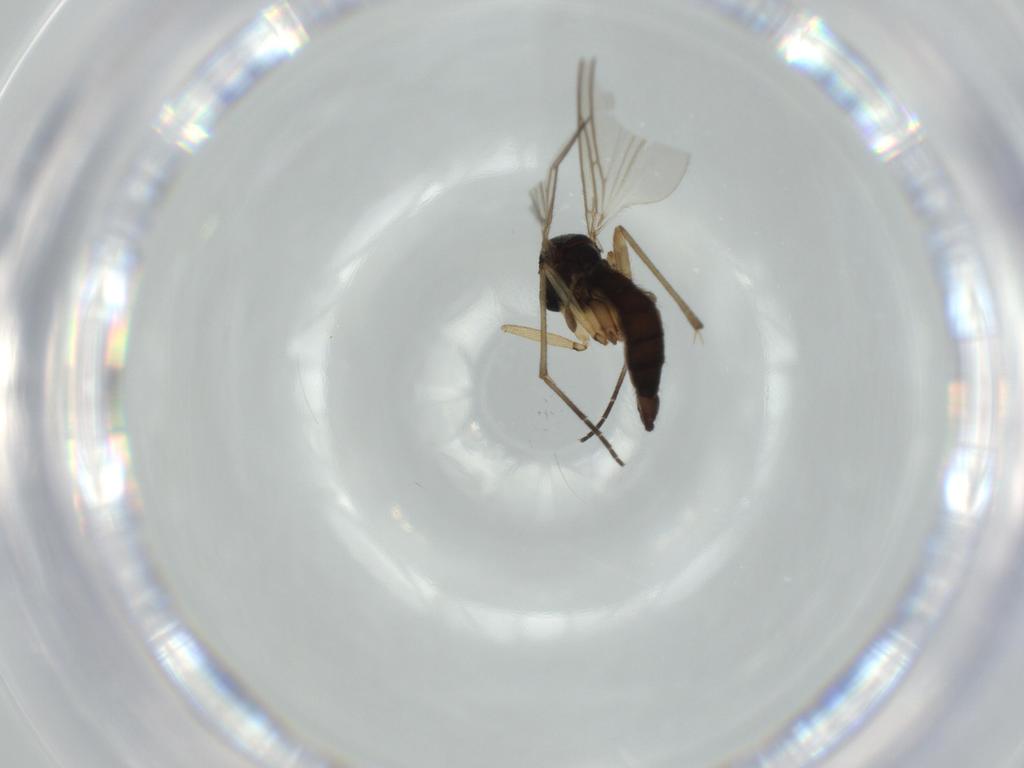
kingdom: Animalia
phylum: Arthropoda
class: Insecta
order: Diptera
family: Sciaridae
